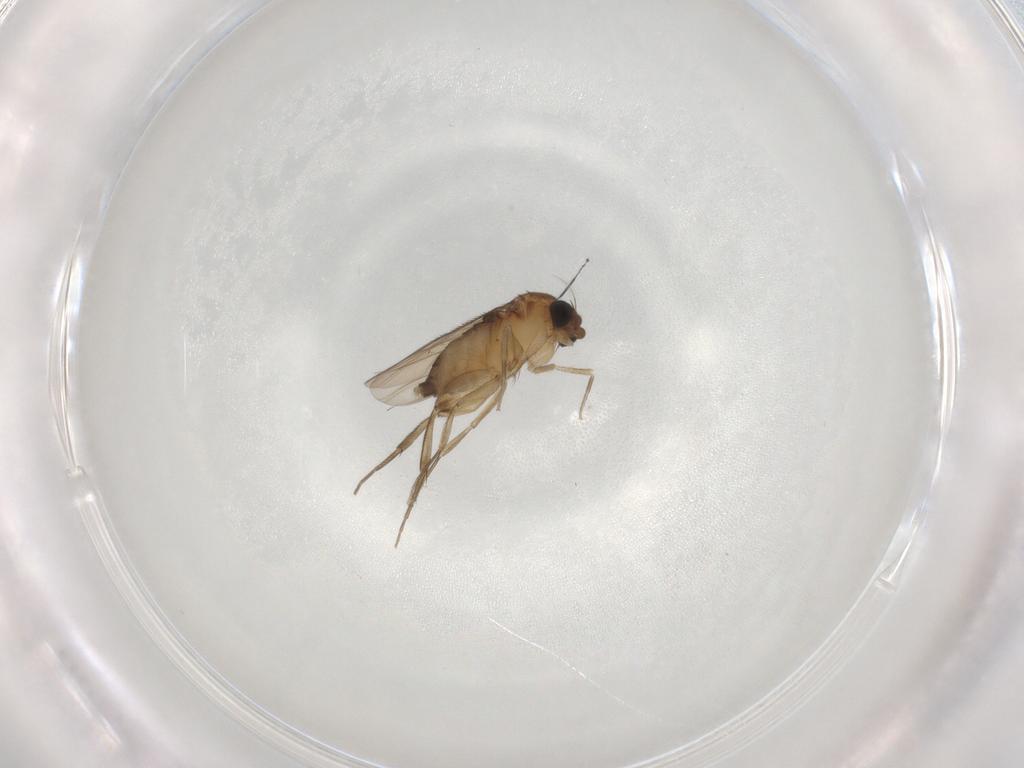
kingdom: Animalia
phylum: Arthropoda
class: Insecta
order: Diptera
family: Phoridae
